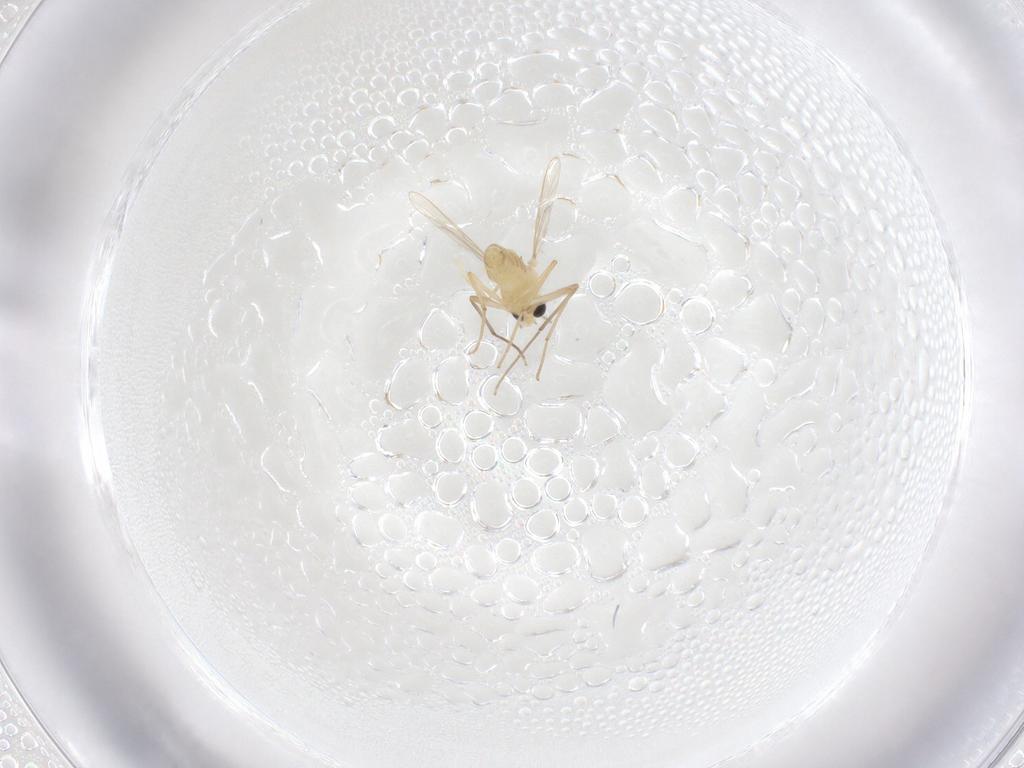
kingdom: Animalia
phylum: Arthropoda
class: Insecta
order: Diptera
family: Chironomidae
